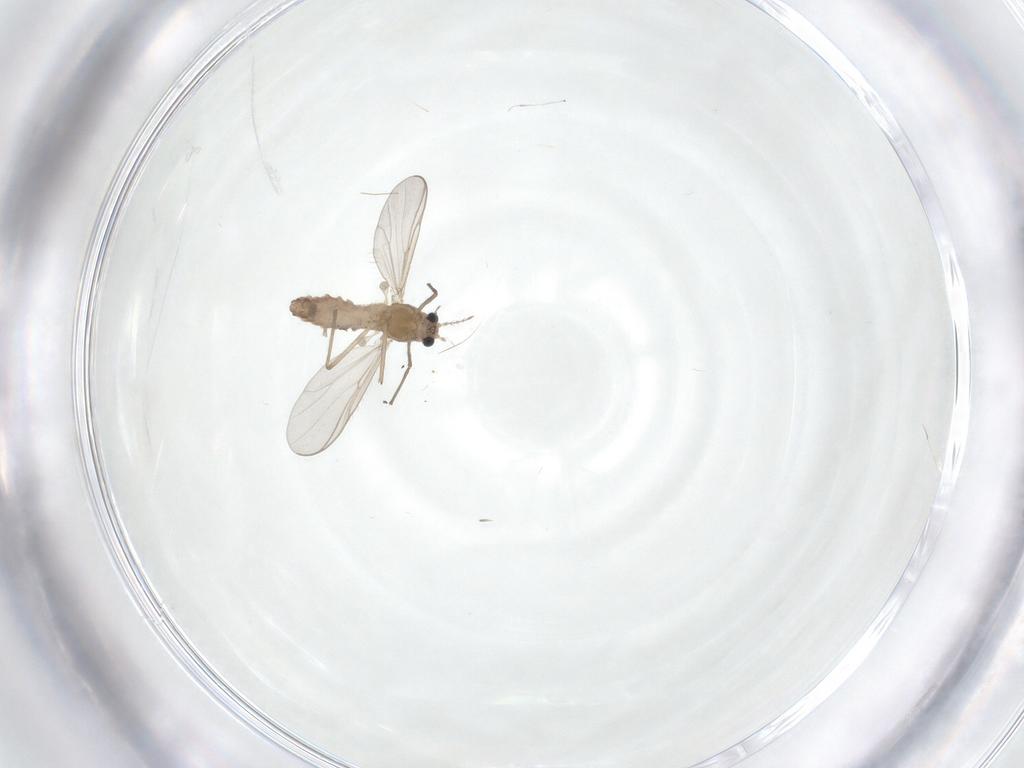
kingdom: Animalia
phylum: Arthropoda
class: Insecta
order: Diptera
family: Chironomidae
